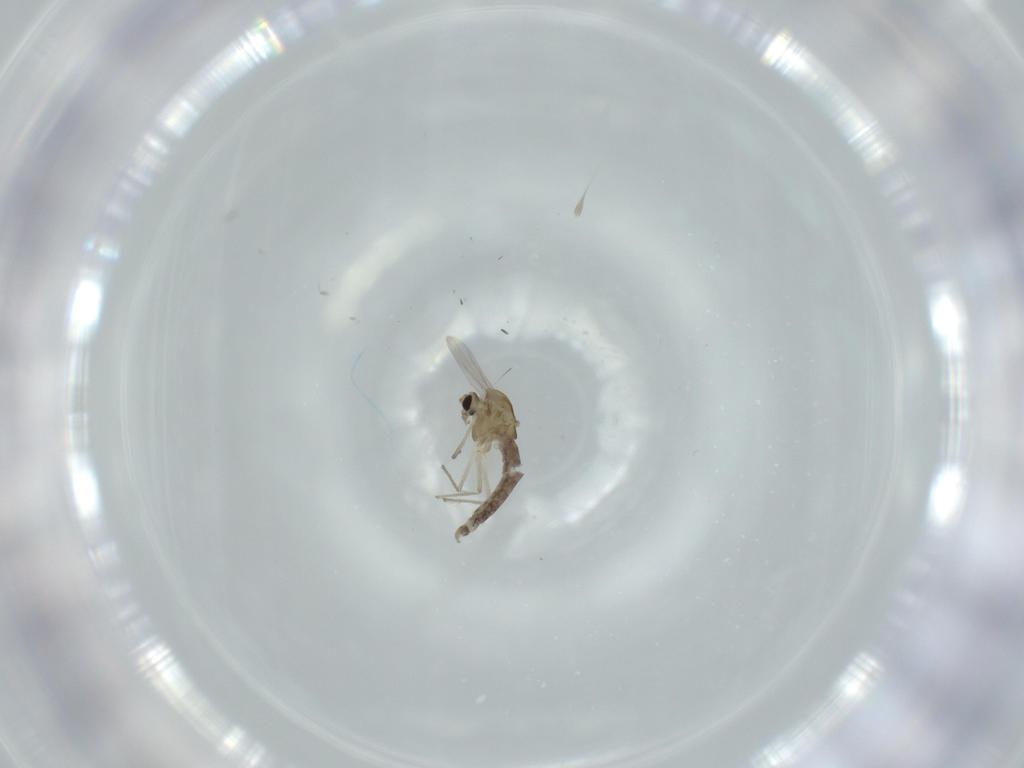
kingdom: Animalia
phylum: Arthropoda
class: Insecta
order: Diptera
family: Chironomidae
